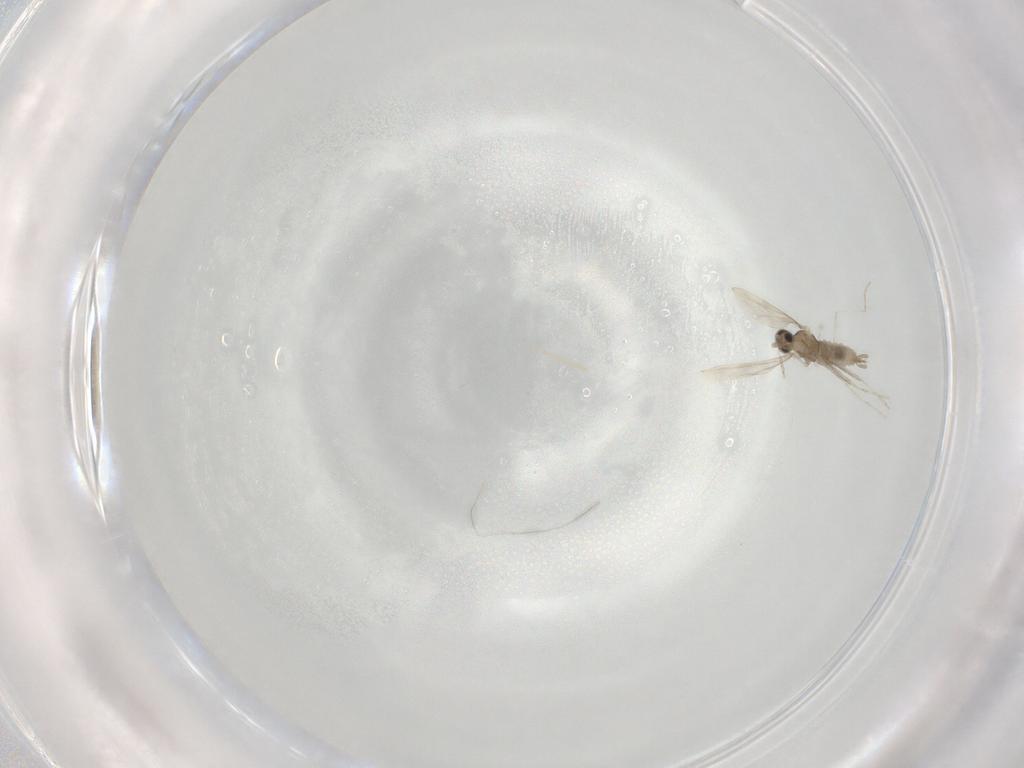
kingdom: Animalia
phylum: Arthropoda
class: Insecta
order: Diptera
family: Cecidomyiidae
